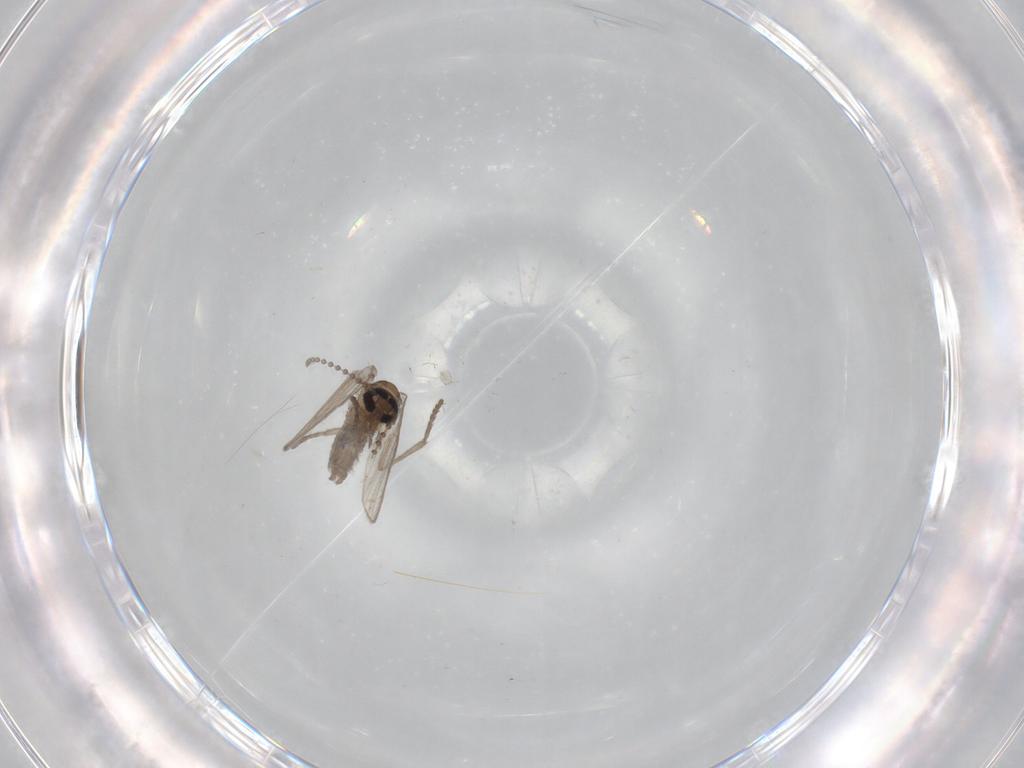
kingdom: Animalia
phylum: Arthropoda
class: Insecta
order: Diptera
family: Psychodidae
